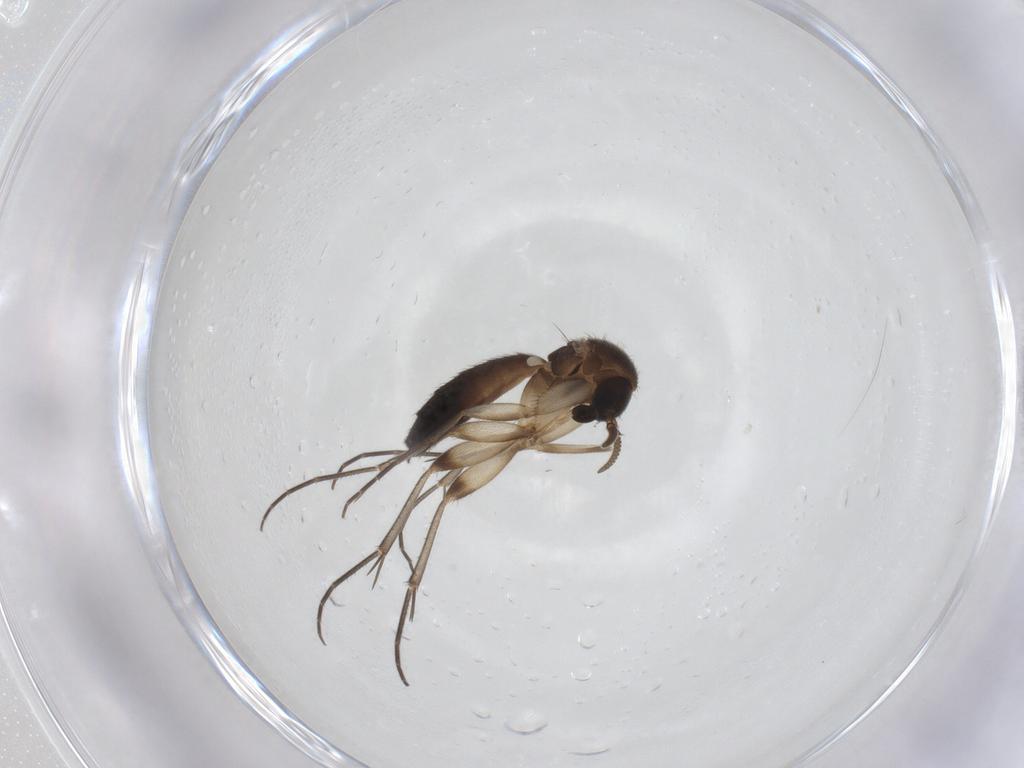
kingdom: Animalia
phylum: Arthropoda
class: Insecta
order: Diptera
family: Mycetophilidae
